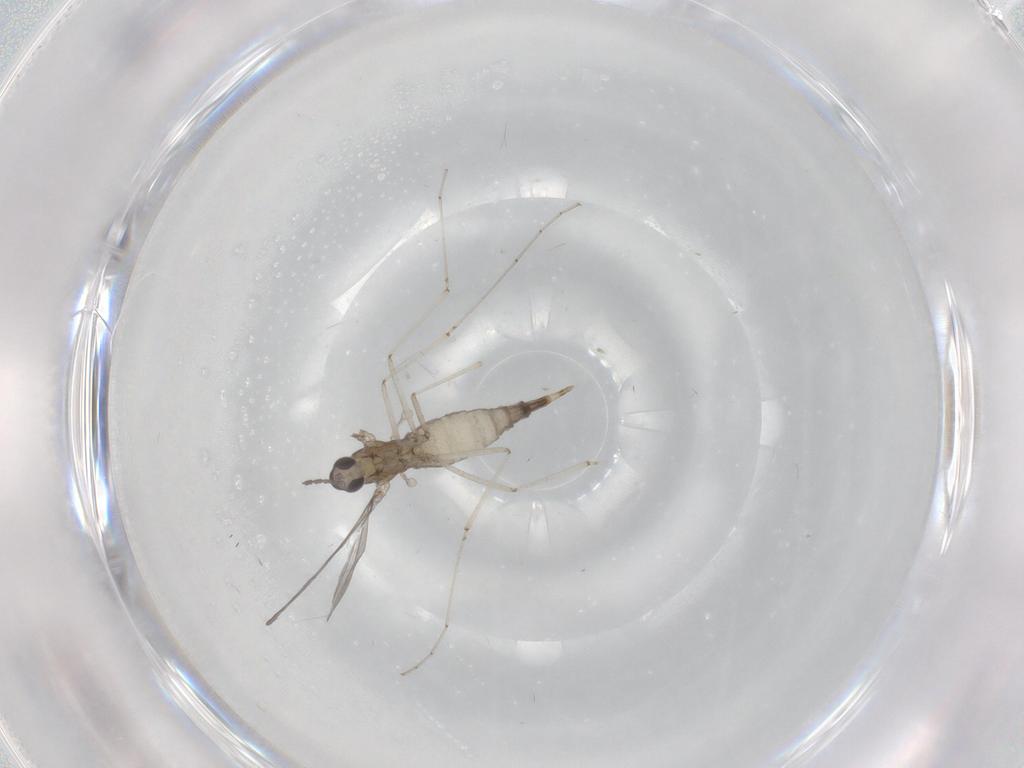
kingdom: Animalia
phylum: Arthropoda
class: Insecta
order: Diptera
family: Cecidomyiidae
